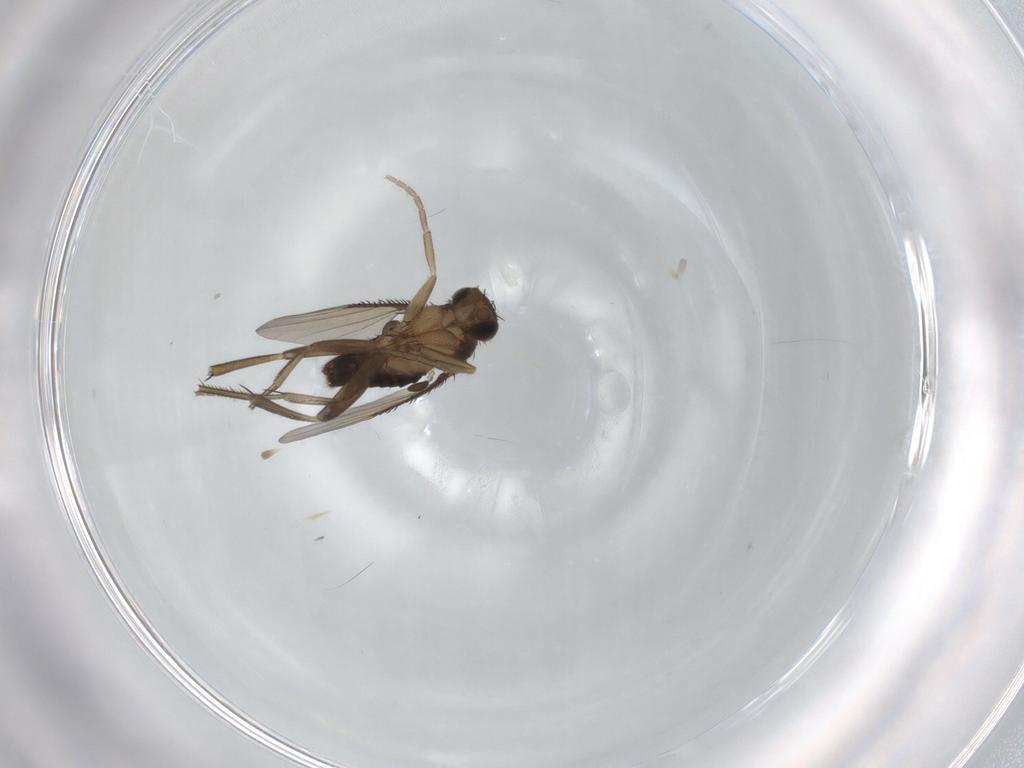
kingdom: Animalia
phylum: Arthropoda
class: Insecta
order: Diptera
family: Phoridae
